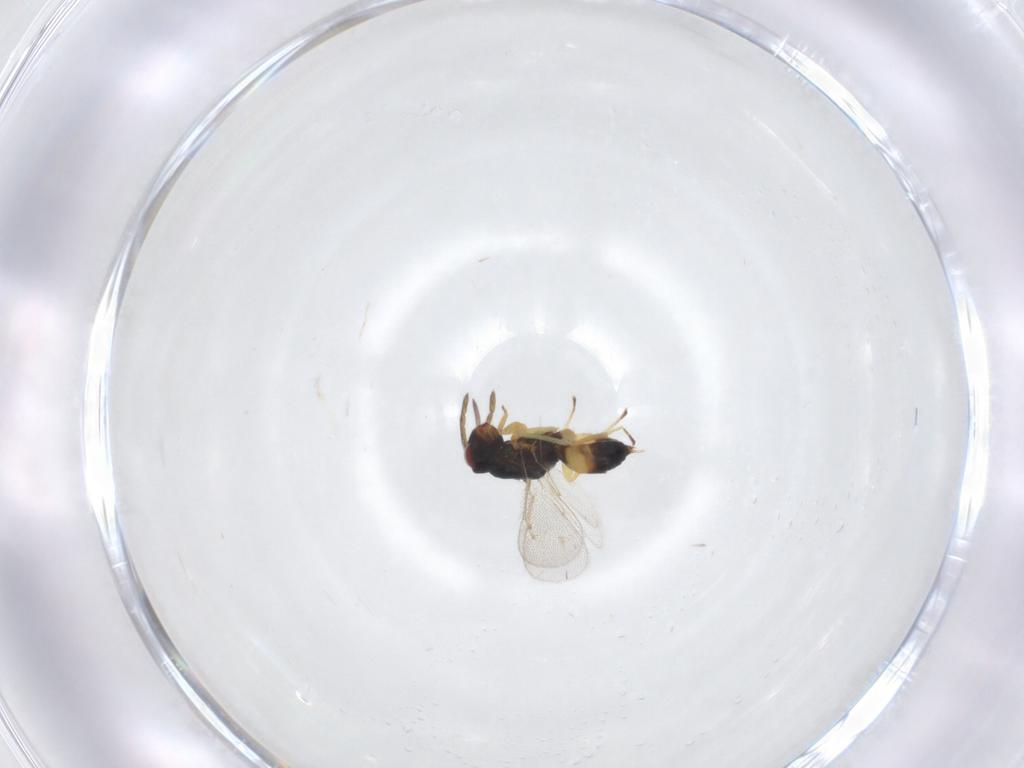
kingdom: Animalia
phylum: Arthropoda
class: Insecta
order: Hymenoptera
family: Eulophidae
